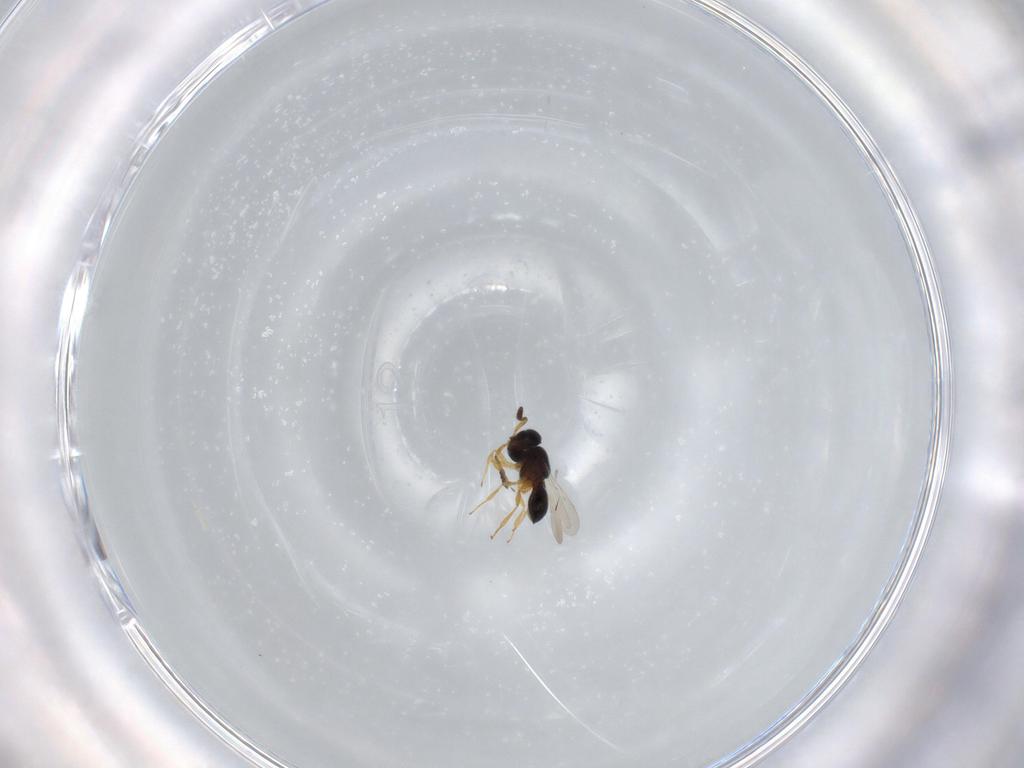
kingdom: Animalia
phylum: Arthropoda
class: Insecta
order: Hymenoptera
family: Scelionidae
